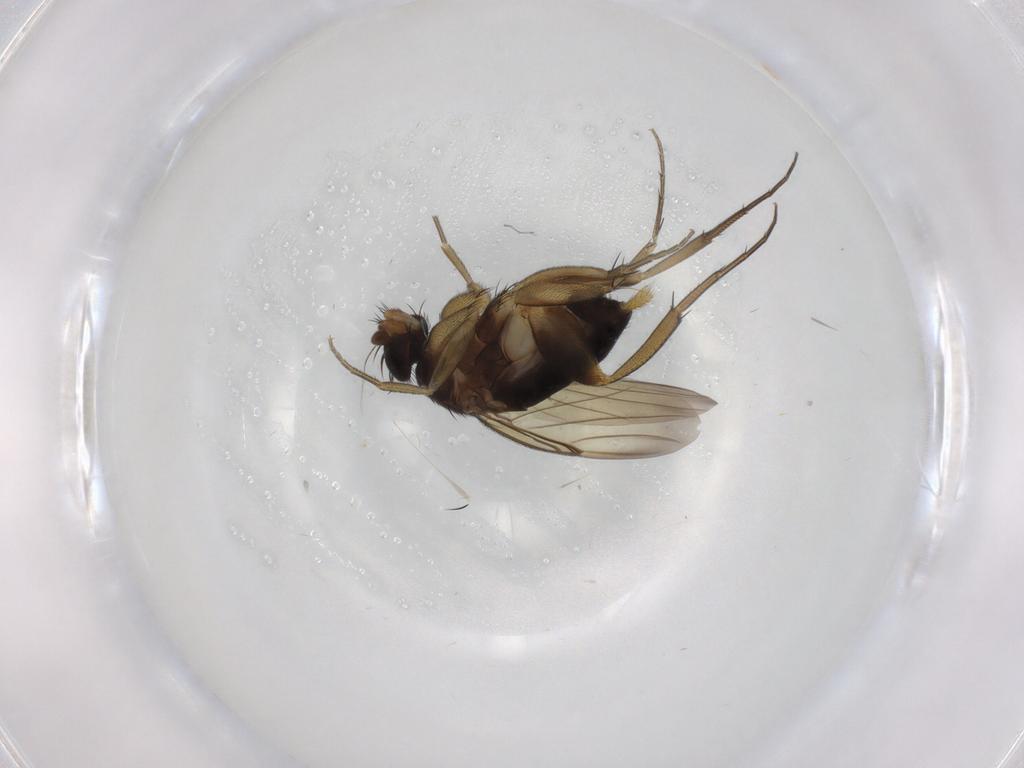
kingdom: Animalia
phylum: Arthropoda
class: Insecta
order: Diptera
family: Phoridae
